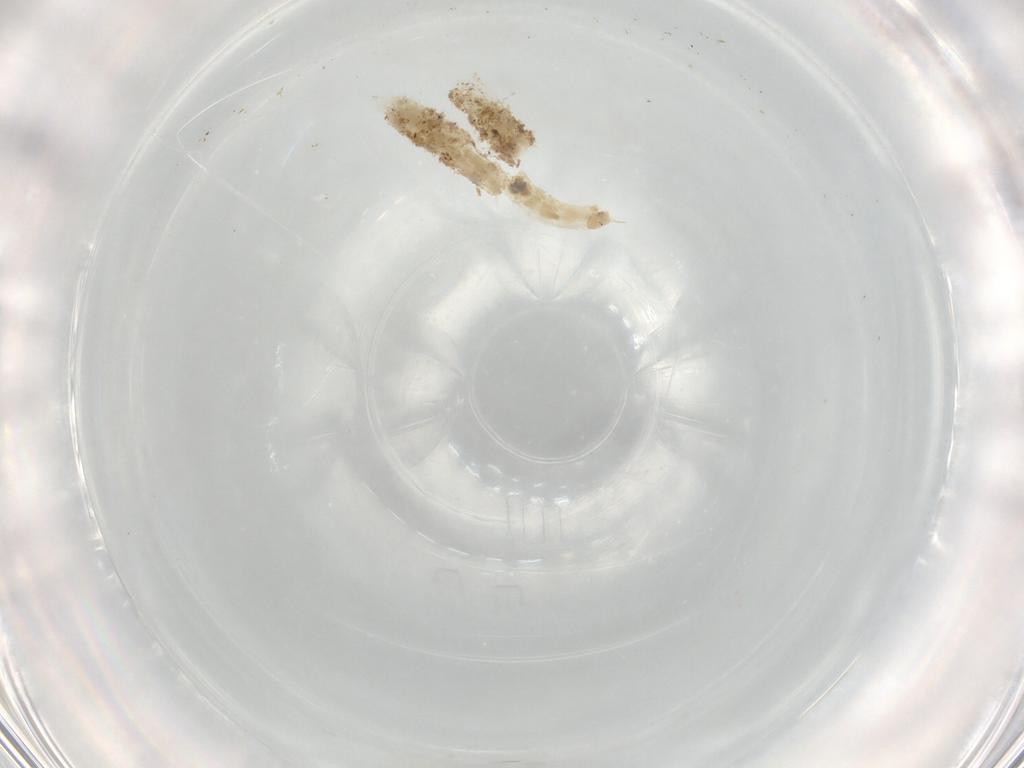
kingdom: Animalia
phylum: Arthropoda
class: Insecta
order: Diptera
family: Chironomidae
